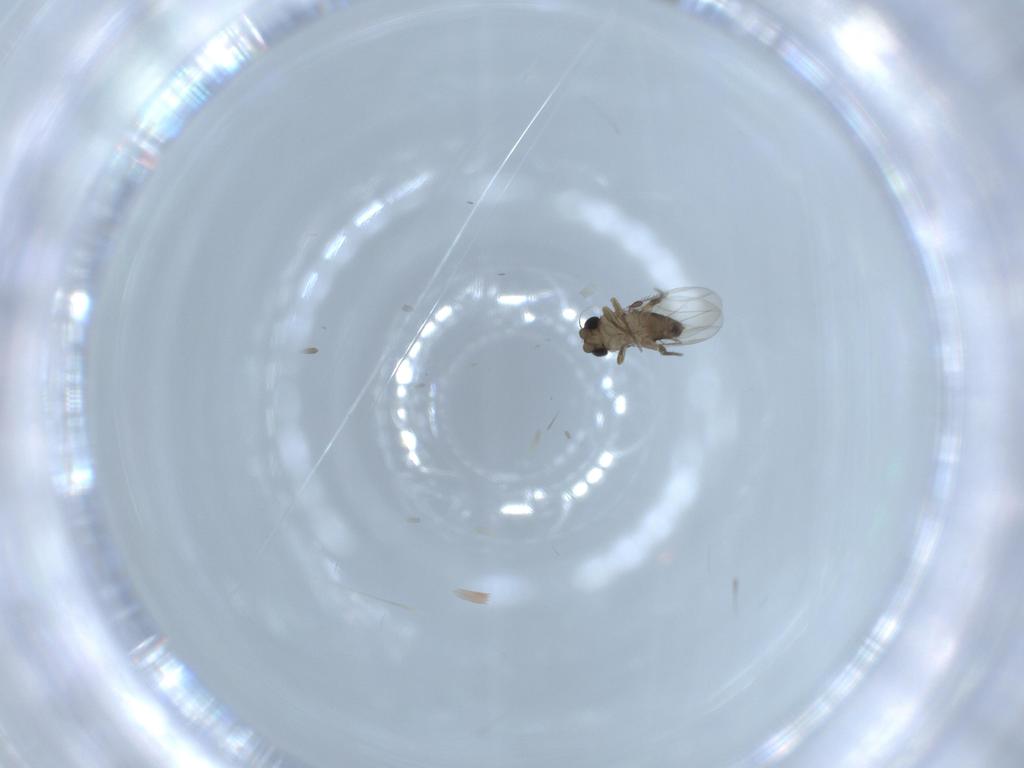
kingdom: Animalia
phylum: Arthropoda
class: Insecta
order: Diptera
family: Phoridae
